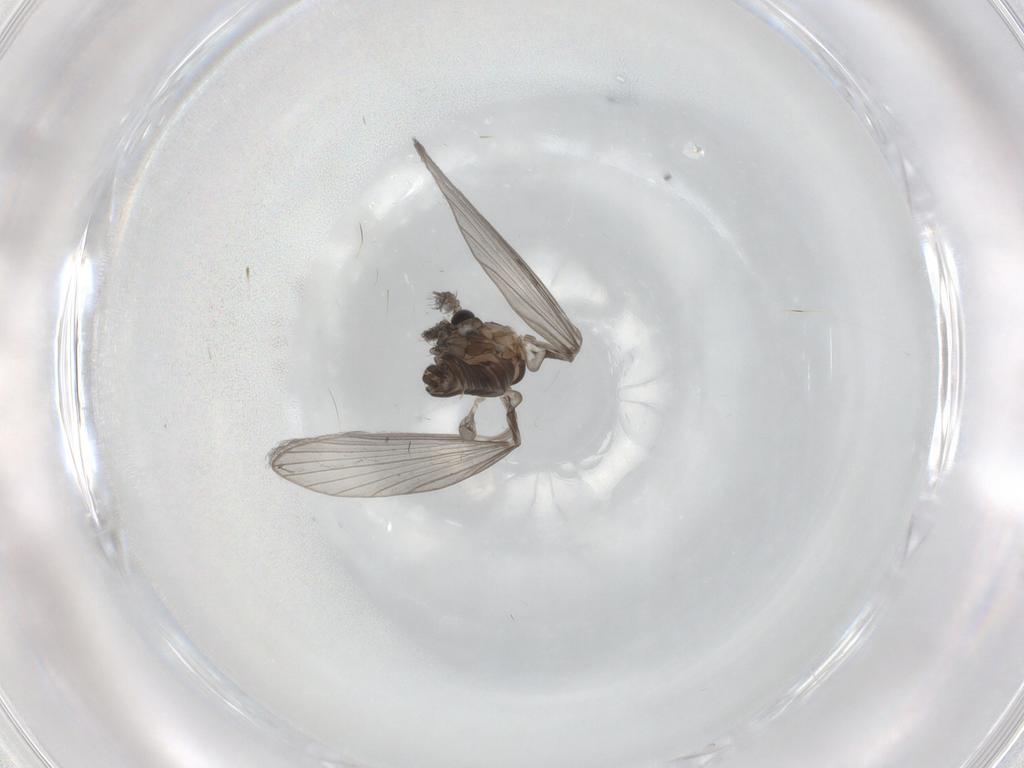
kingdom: Animalia
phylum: Arthropoda
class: Insecta
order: Diptera
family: Psychodidae
